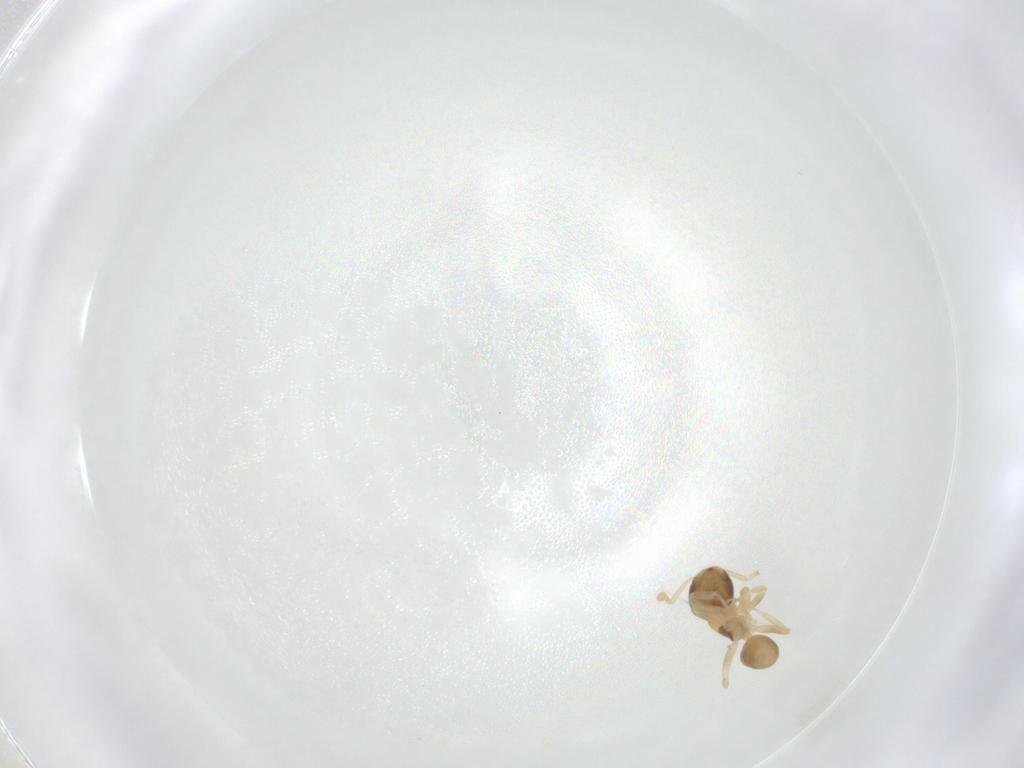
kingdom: Animalia
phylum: Arthropoda
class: Insecta
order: Hymenoptera
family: Formicidae
